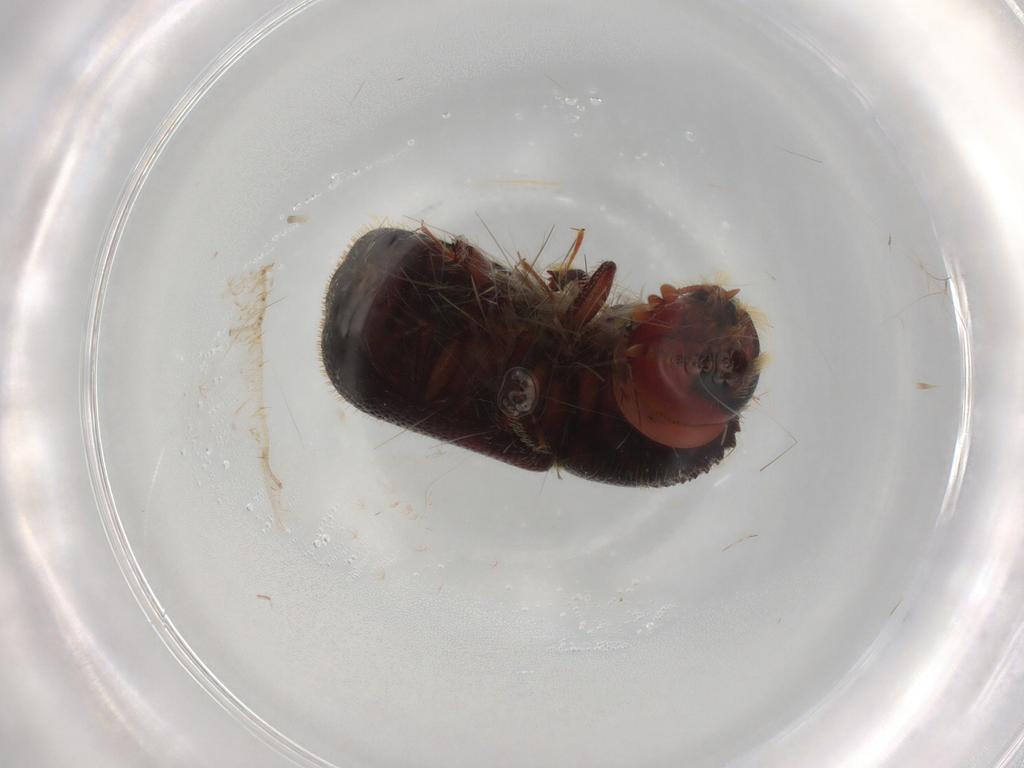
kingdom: Animalia
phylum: Arthropoda
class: Insecta
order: Coleoptera
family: Bostrichidae
